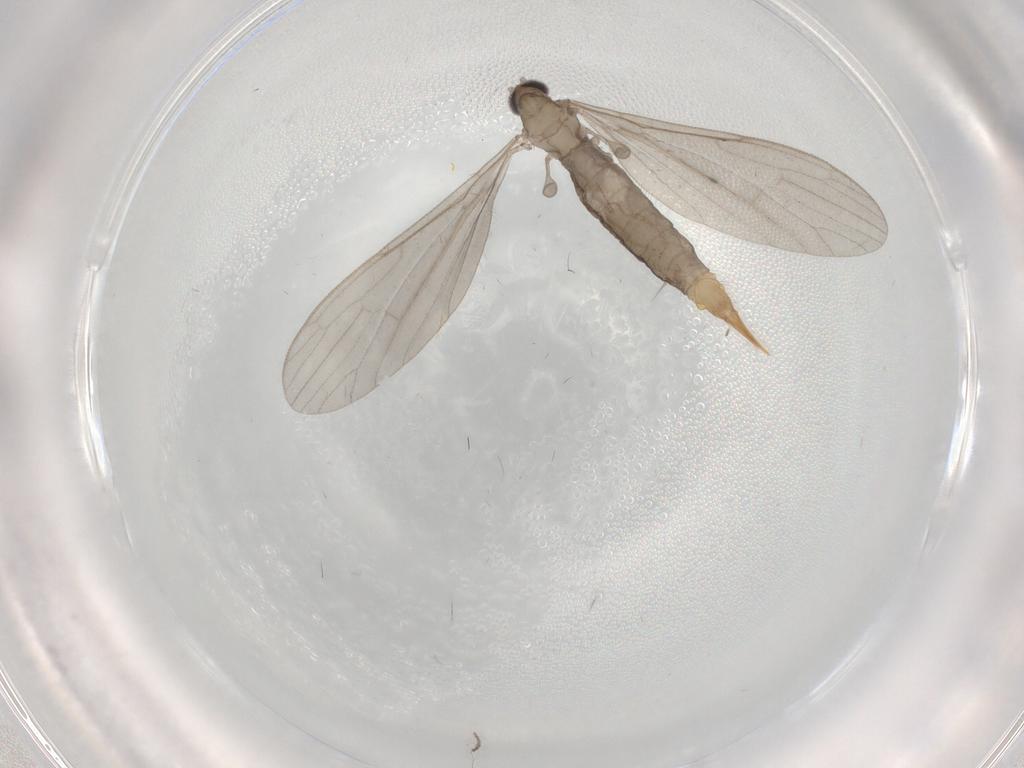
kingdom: Animalia
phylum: Arthropoda
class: Insecta
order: Diptera
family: Limoniidae
